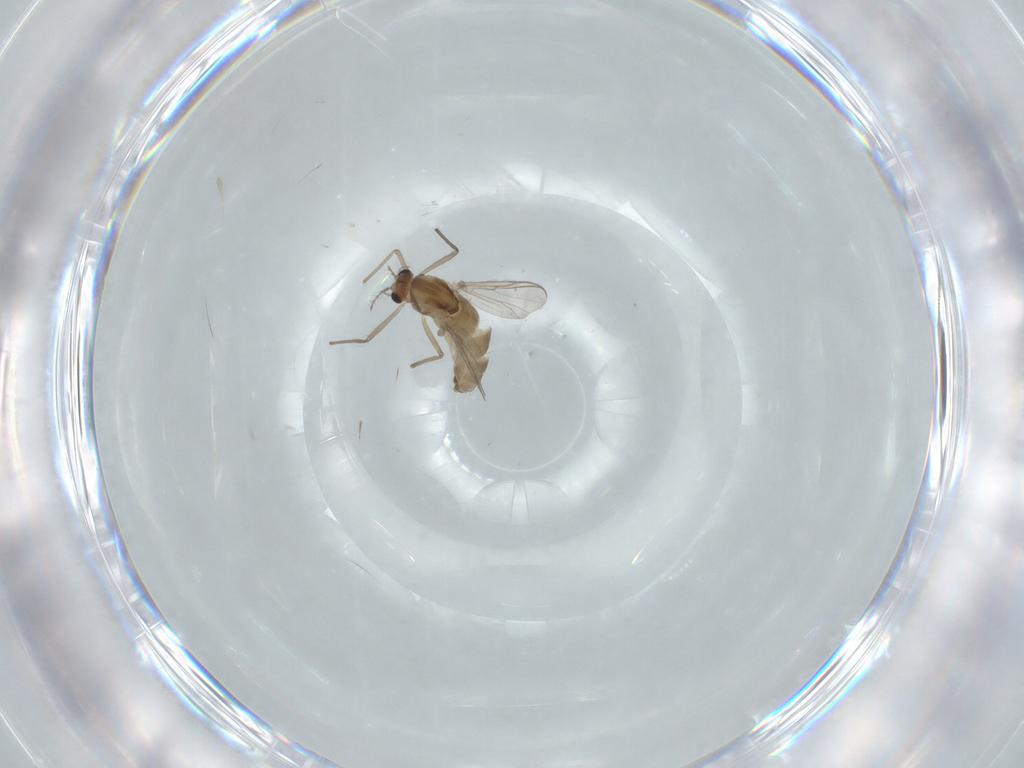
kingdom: Animalia
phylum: Arthropoda
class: Insecta
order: Diptera
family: Chironomidae
